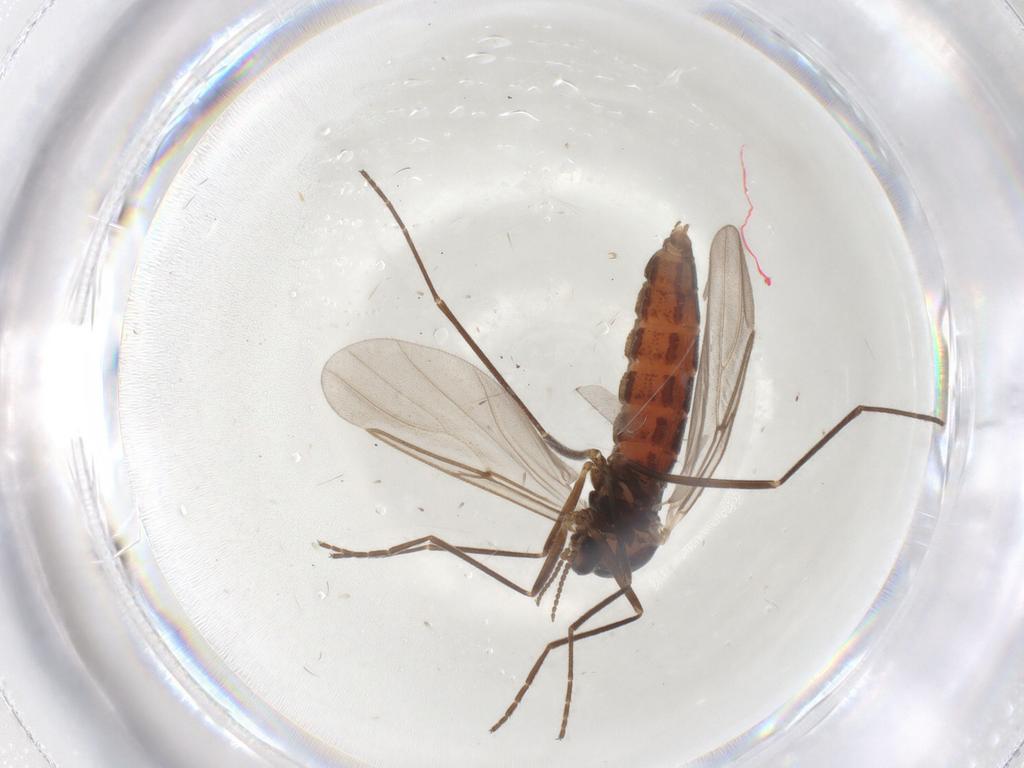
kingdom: Animalia
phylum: Arthropoda
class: Insecta
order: Diptera
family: Cecidomyiidae
